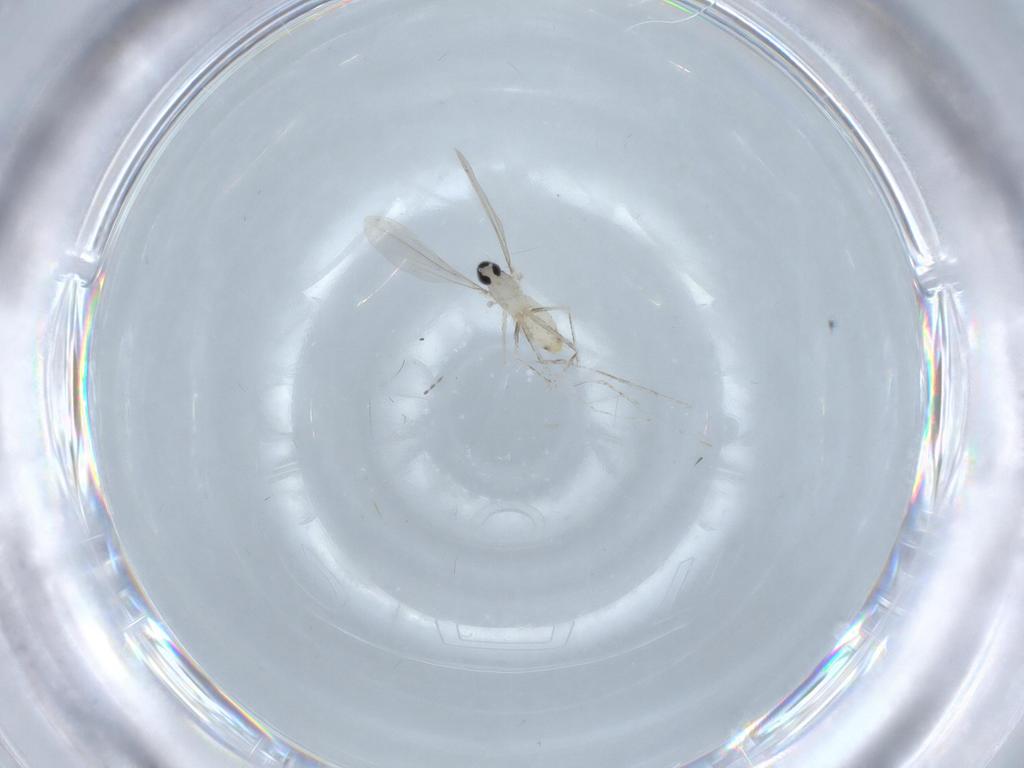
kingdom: Animalia
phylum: Arthropoda
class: Insecta
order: Diptera
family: Cecidomyiidae
